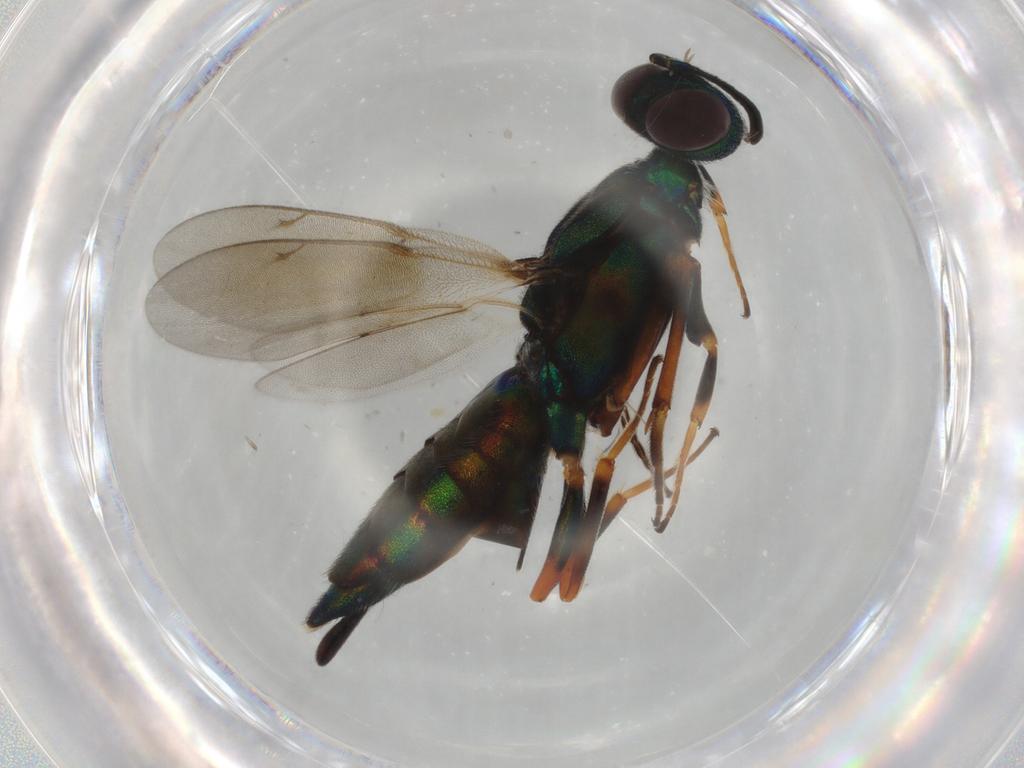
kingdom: Animalia
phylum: Arthropoda
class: Insecta
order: Hymenoptera
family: Eupelmidae
